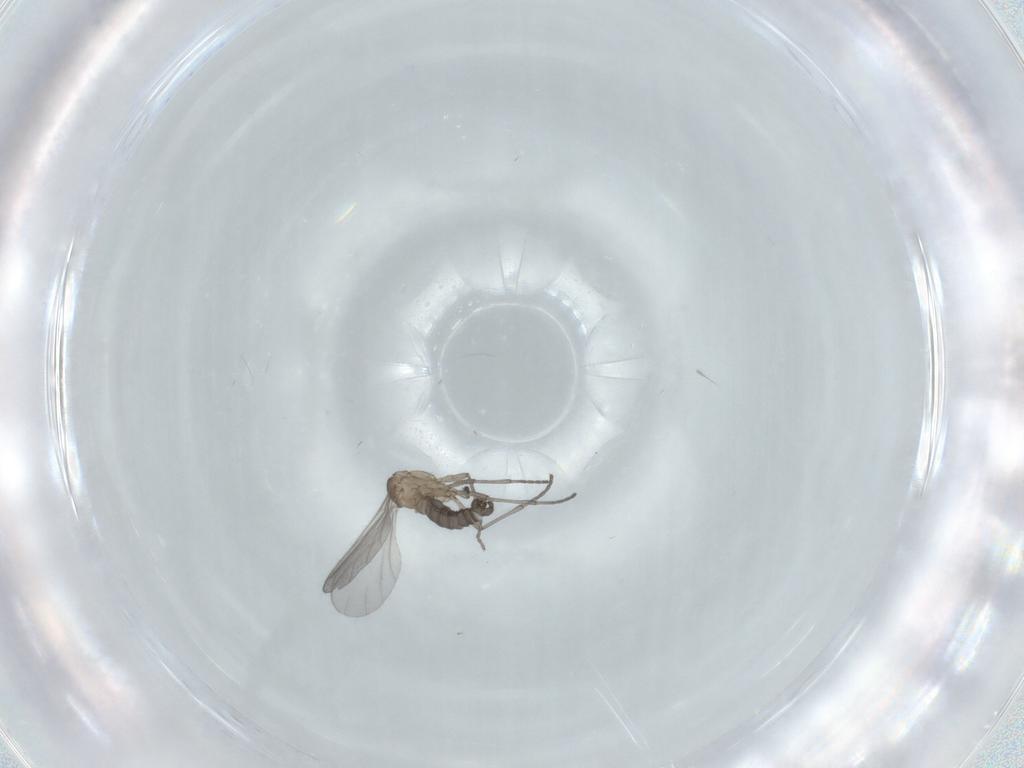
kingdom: Animalia
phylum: Arthropoda
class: Insecta
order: Diptera
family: Sciaridae
